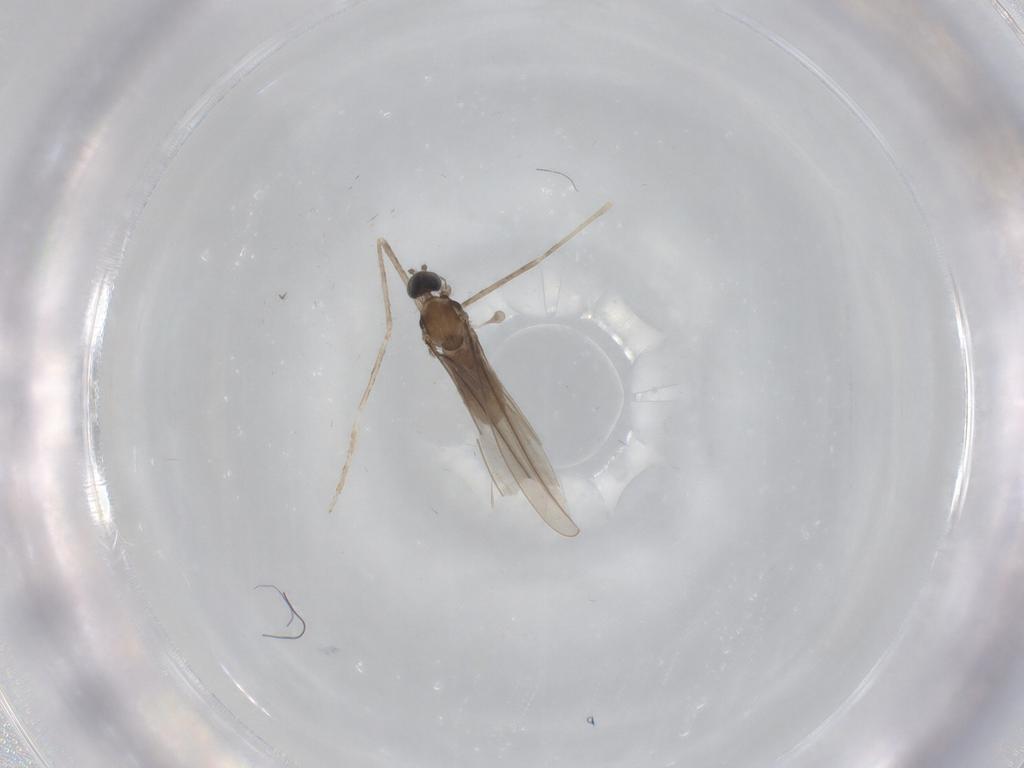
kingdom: Animalia
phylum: Arthropoda
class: Insecta
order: Diptera
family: Cecidomyiidae
